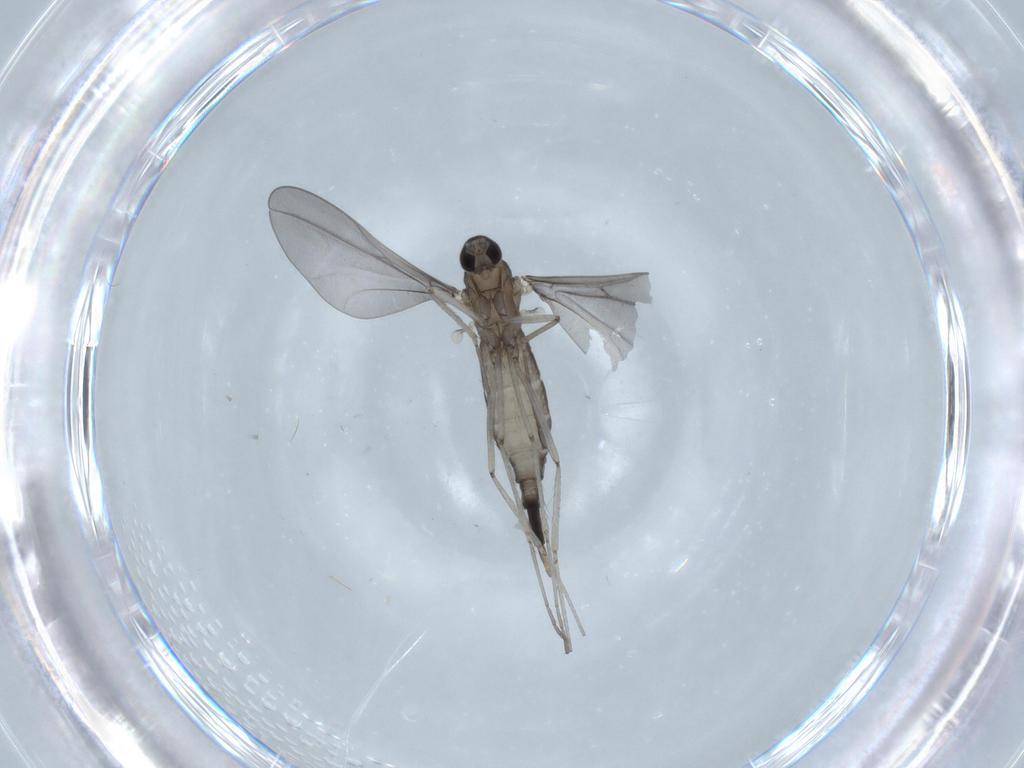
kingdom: Animalia
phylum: Arthropoda
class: Insecta
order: Diptera
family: Cecidomyiidae
